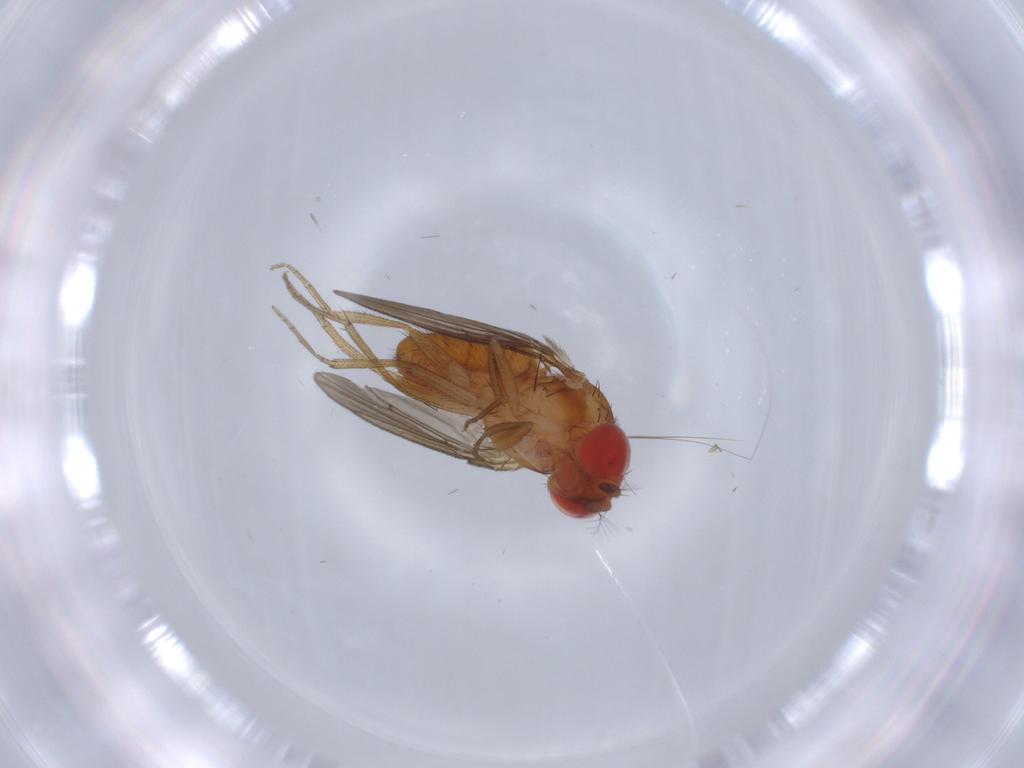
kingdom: Animalia
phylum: Arthropoda
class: Insecta
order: Diptera
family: Drosophilidae
